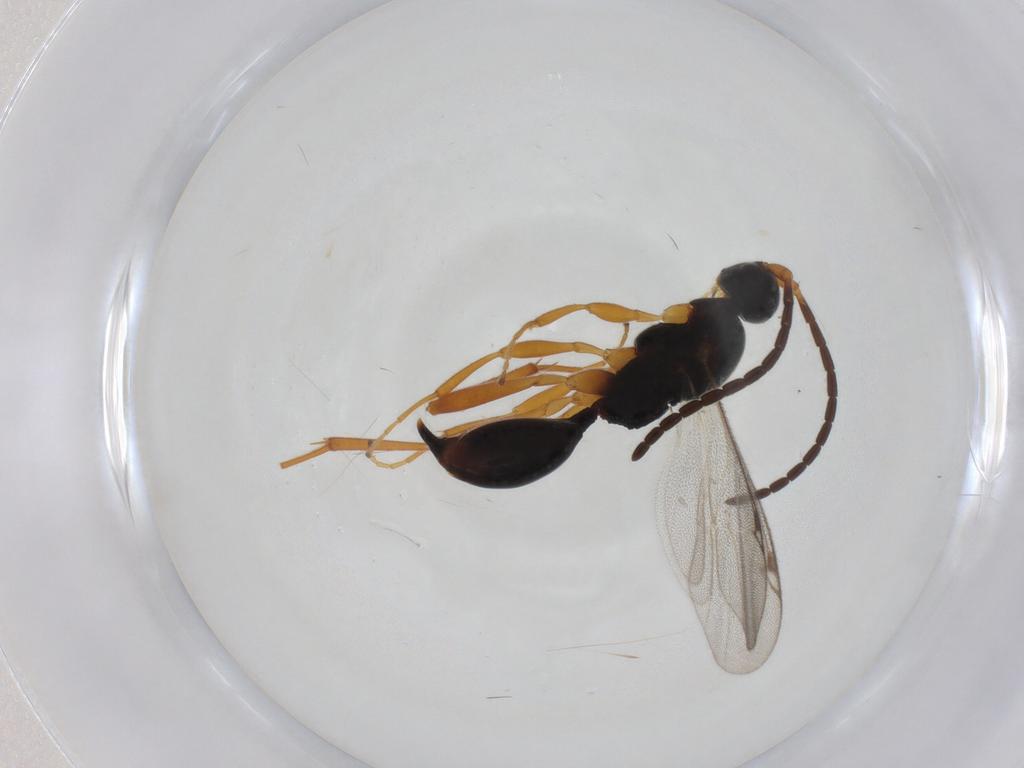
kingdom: Animalia
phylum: Arthropoda
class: Insecta
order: Hymenoptera
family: Proctotrupidae
